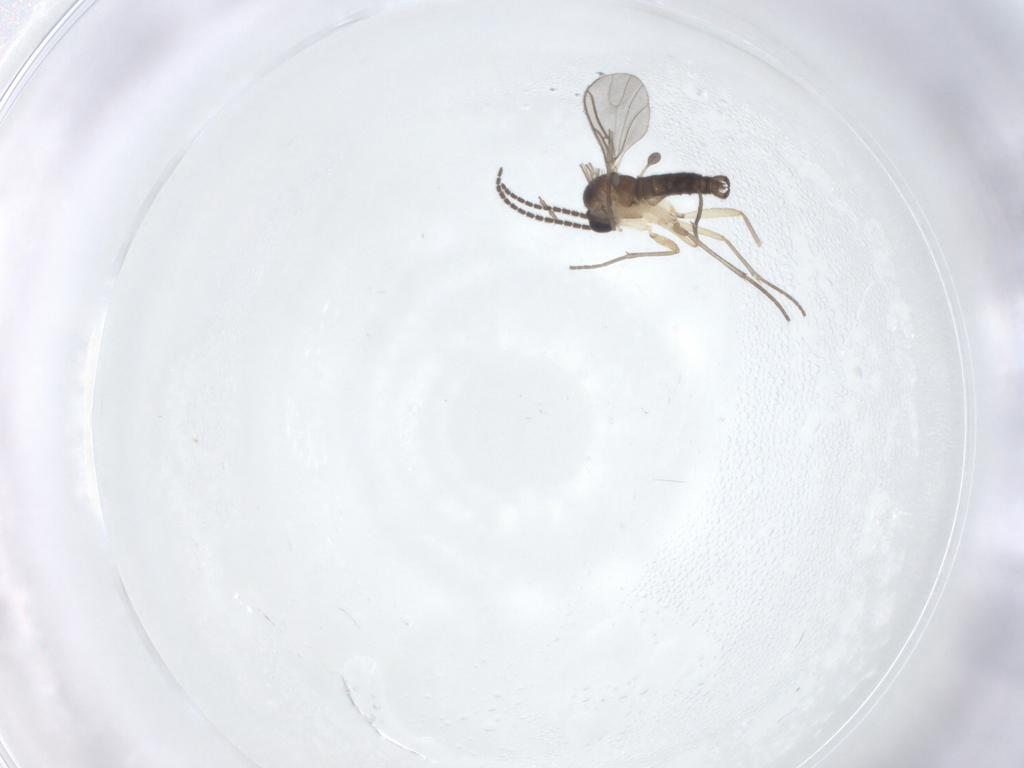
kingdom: Animalia
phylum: Arthropoda
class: Insecta
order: Diptera
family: Sciaridae
